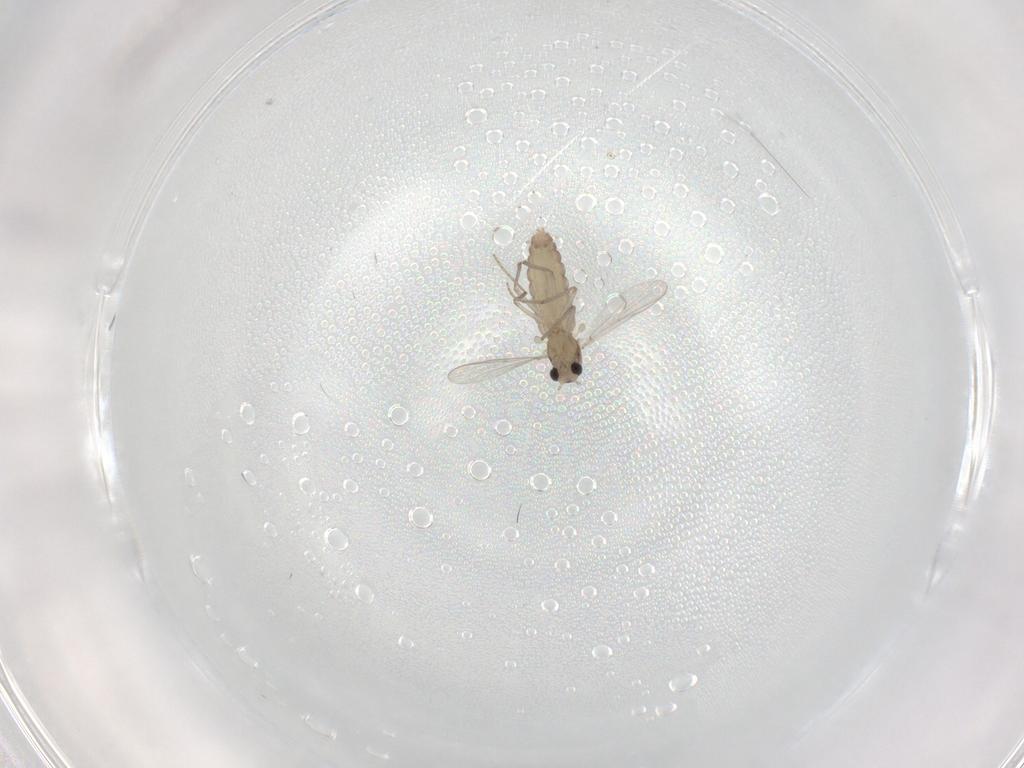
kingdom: Animalia
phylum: Arthropoda
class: Insecta
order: Diptera
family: Chironomidae
